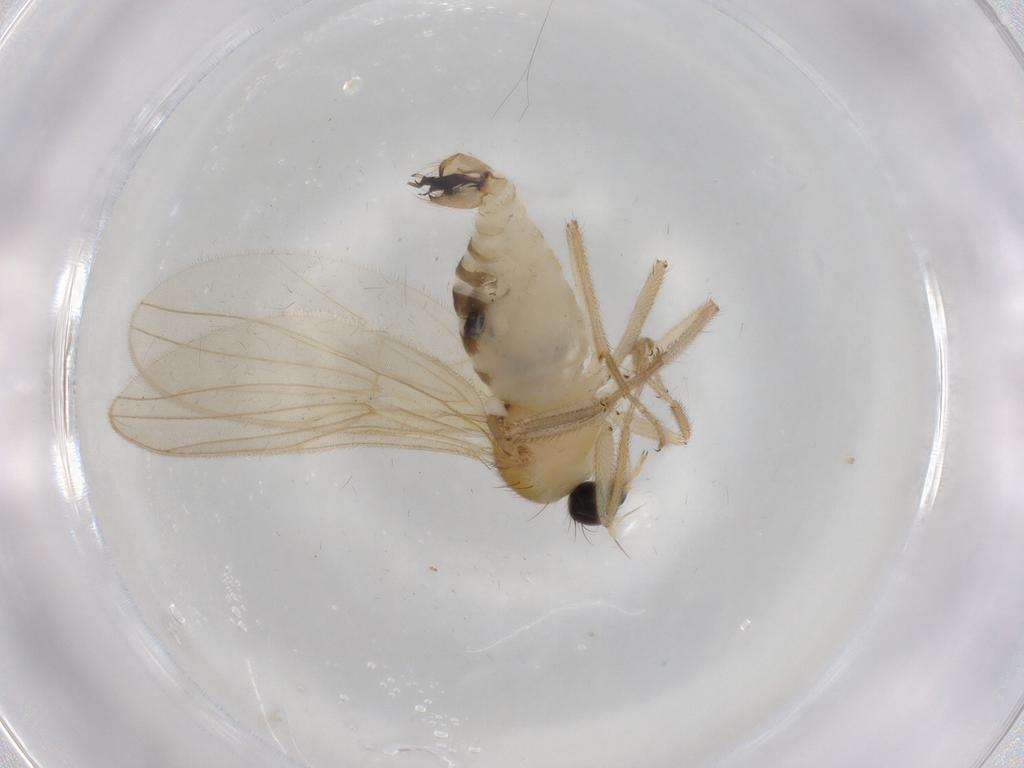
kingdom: Animalia
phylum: Arthropoda
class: Insecta
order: Diptera
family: Hybotidae
